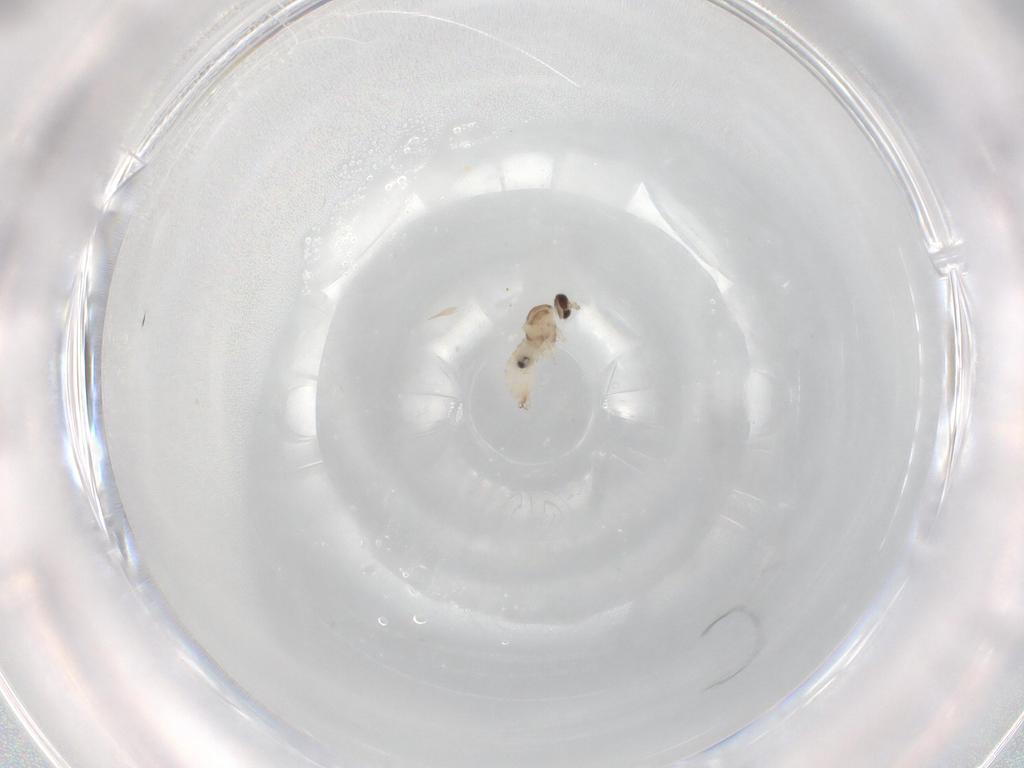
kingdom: Animalia
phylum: Arthropoda
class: Insecta
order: Diptera
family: Cecidomyiidae
